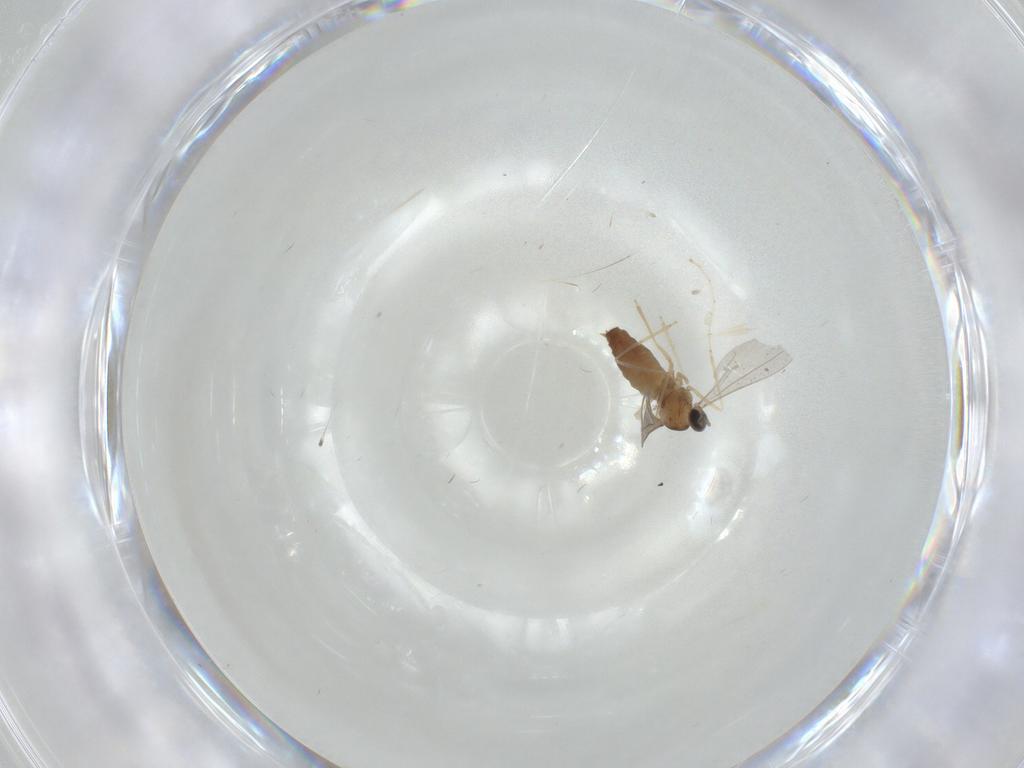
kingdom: Animalia
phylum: Arthropoda
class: Insecta
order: Diptera
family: Chironomidae
